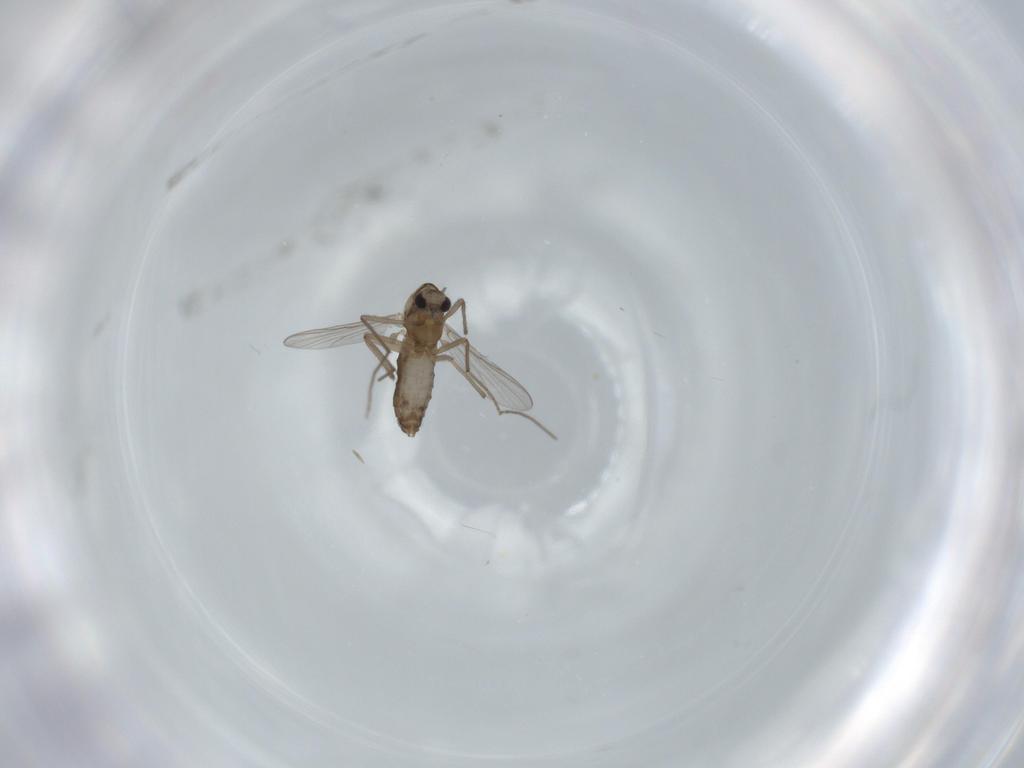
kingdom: Animalia
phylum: Arthropoda
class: Insecta
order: Diptera
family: Chironomidae
